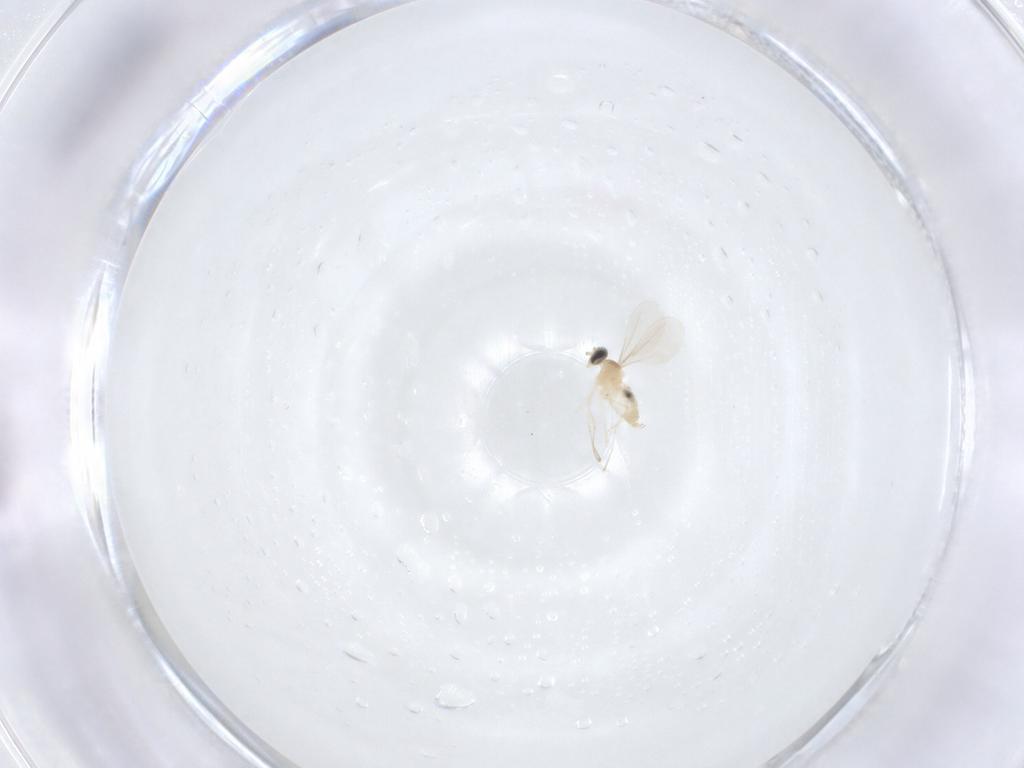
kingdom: Animalia
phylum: Arthropoda
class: Insecta
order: Diptera
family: Cecidomyiidae
